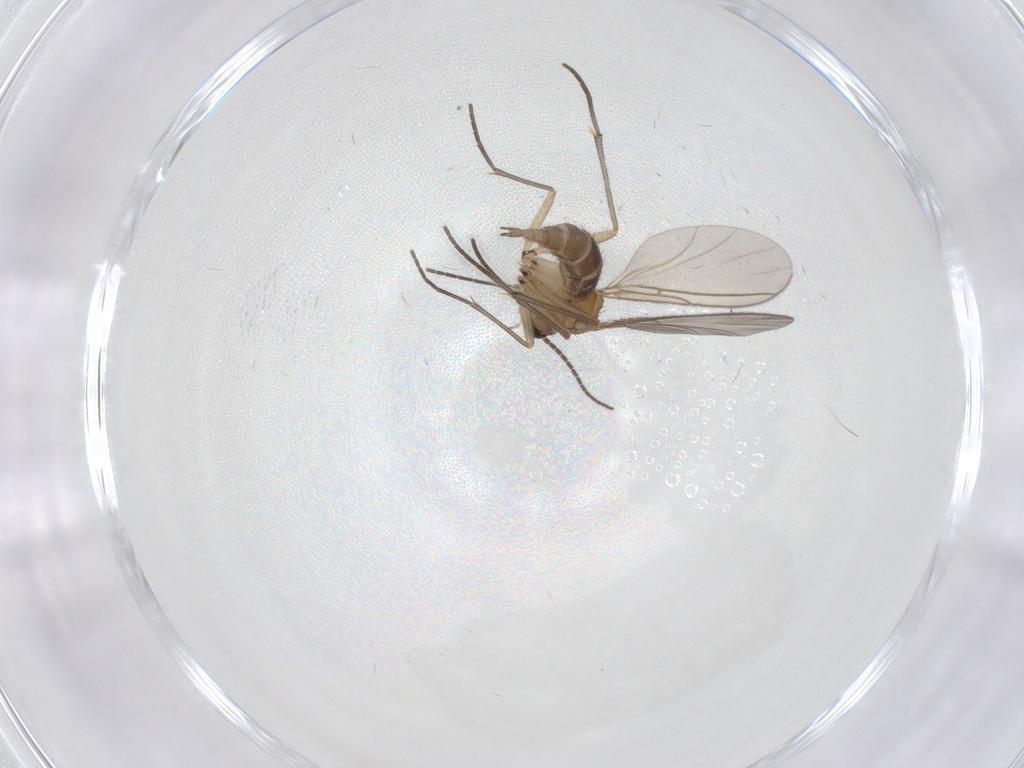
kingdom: Animalia
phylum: Arthropoda
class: Insecta
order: Diptera
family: Sciaridae
